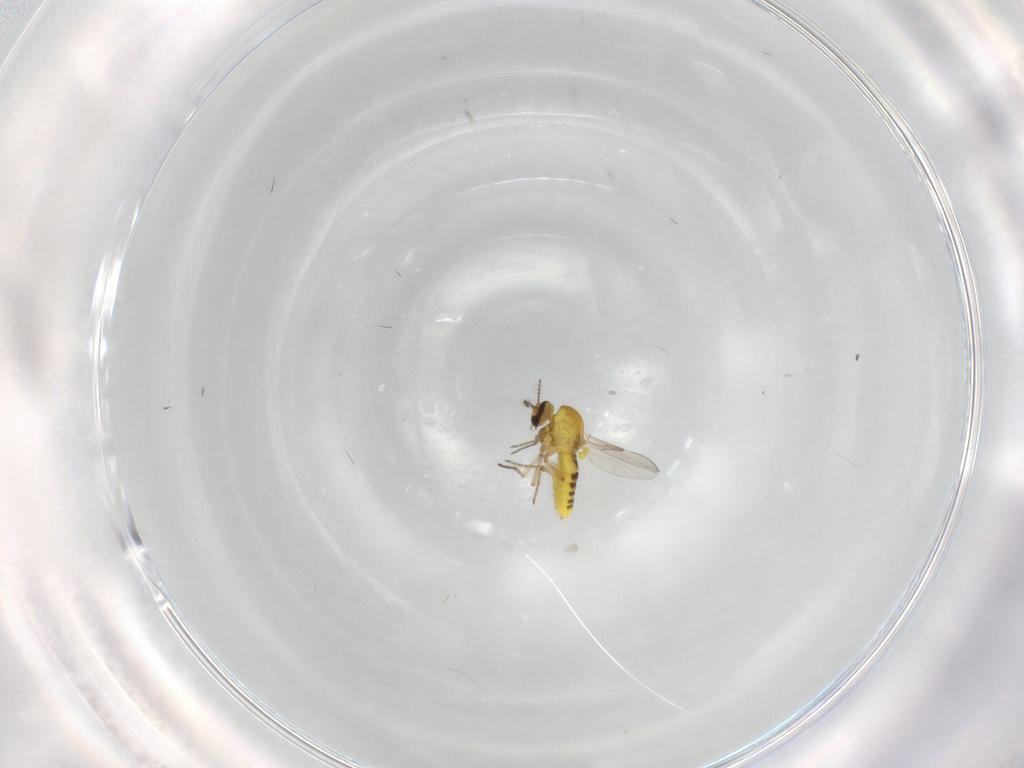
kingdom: Animalia
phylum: Arthropoda
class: Insecta
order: Diptera
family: Ceratopogonidae
